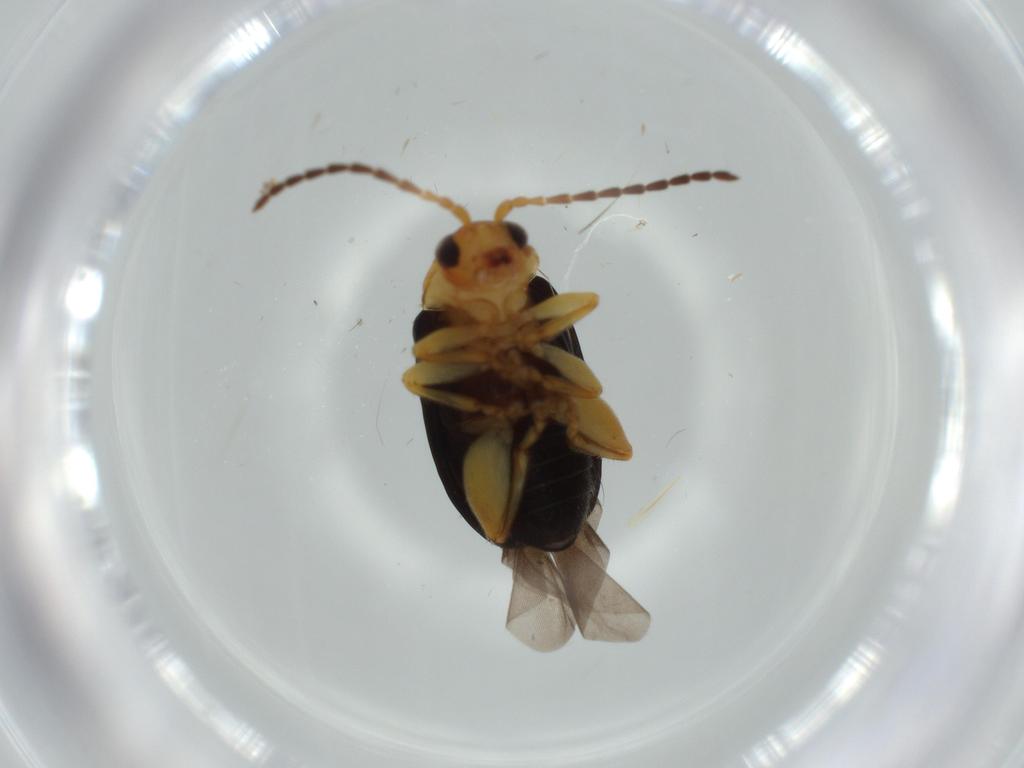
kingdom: Animalia
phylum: Arthropoda
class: Insecta
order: Coleoptera
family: Chrysomelidae
